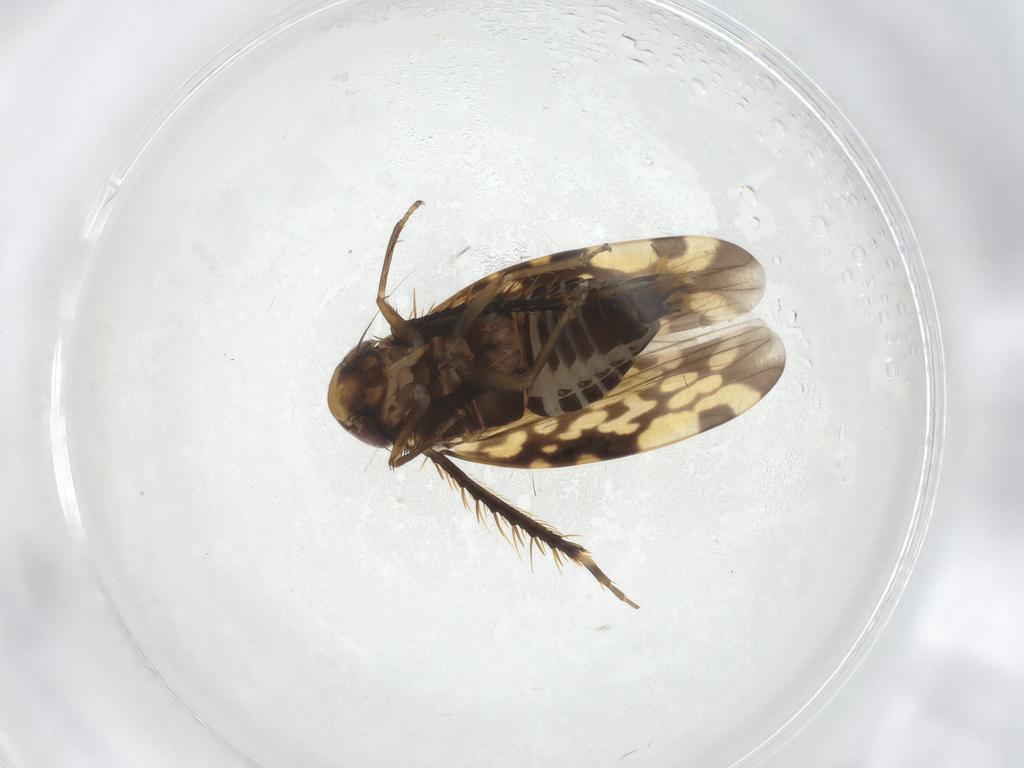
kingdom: Animalia
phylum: Arthropoda
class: Insecta
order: Hemiptera
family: Cicadellidae
